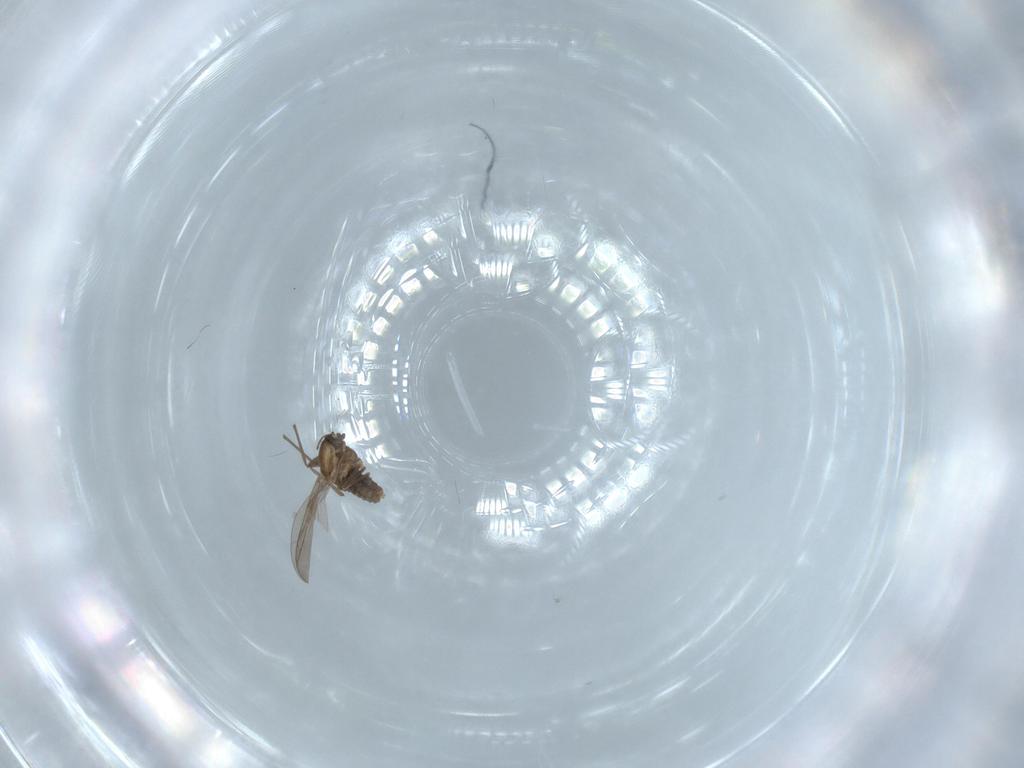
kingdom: Animalia
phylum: Arthropoda
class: Insecta
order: Diptera
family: Chironomidae
